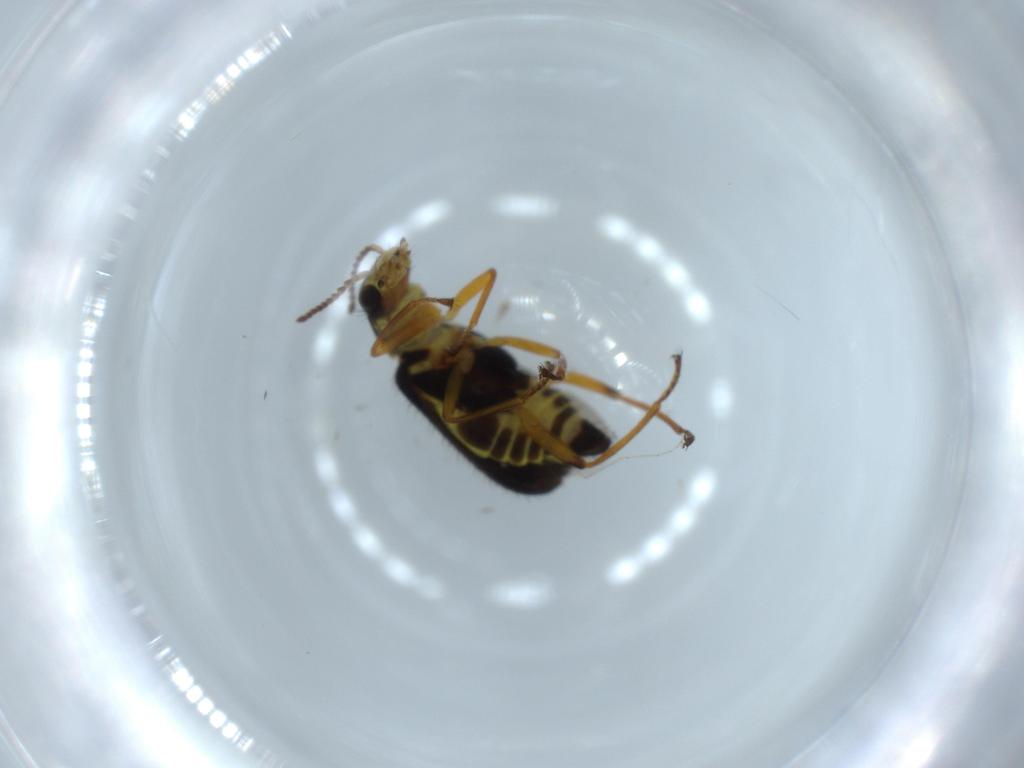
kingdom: Animalia
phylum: Arthropoda
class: Insecta
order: Coleoptera
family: Melyridae
